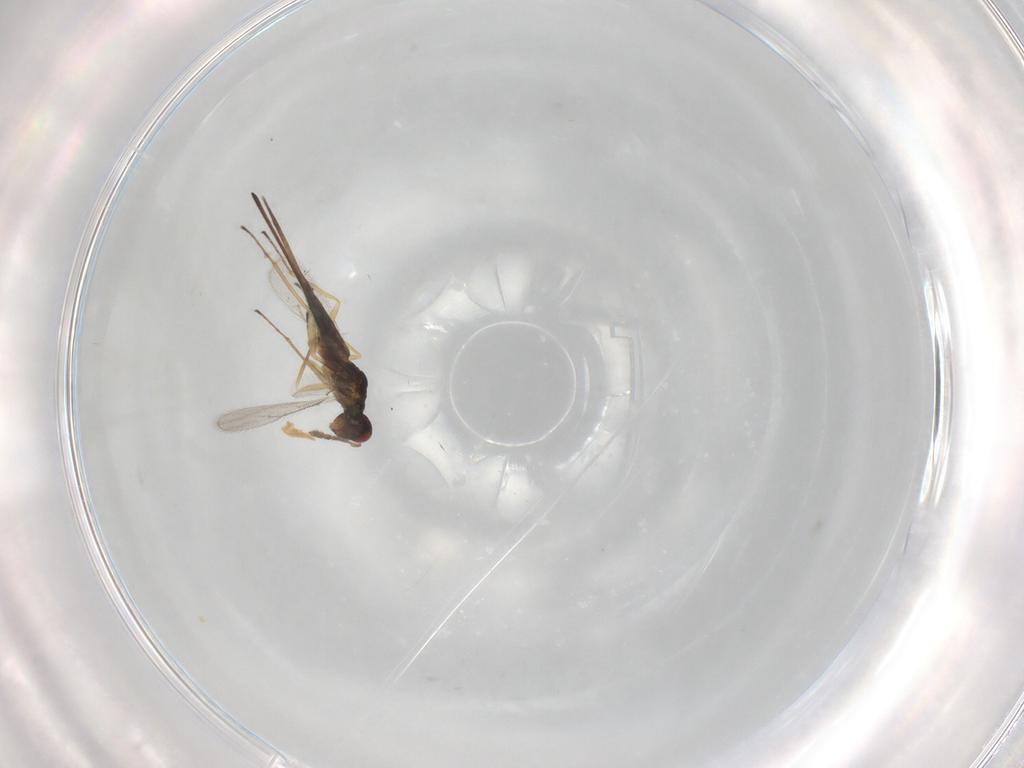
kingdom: Animalia
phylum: Arthropoda
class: Insecta
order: Hymenoptera
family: Eulophidae
